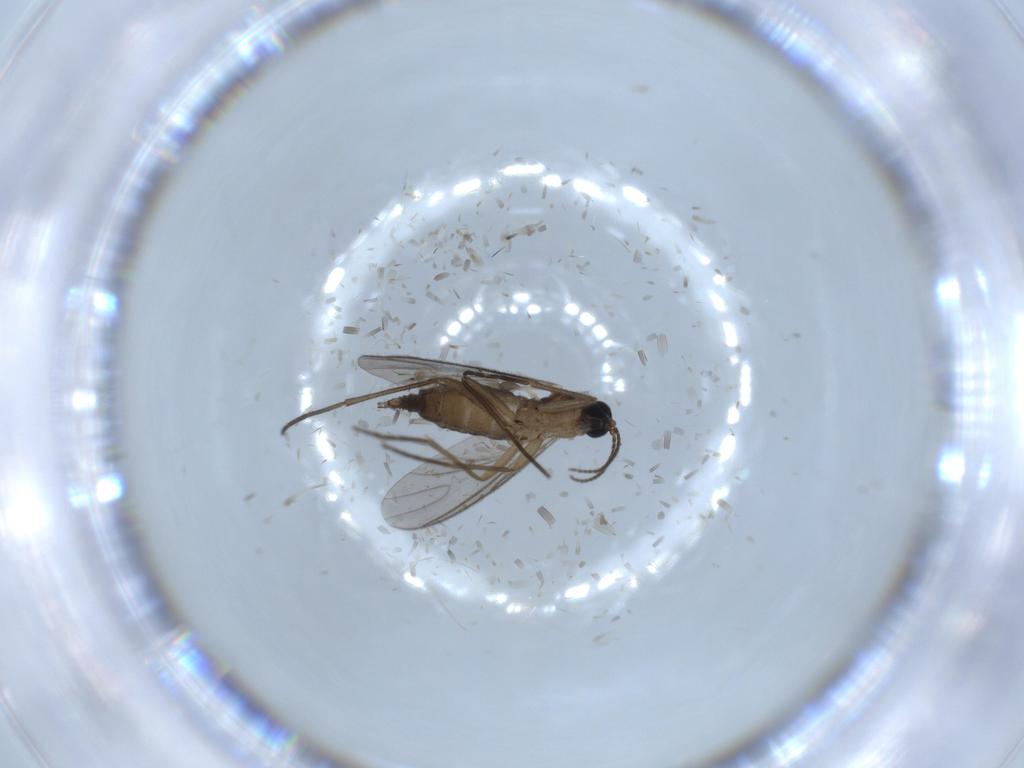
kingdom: Animalia
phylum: Arthropoda
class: Insecta
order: Diptera
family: Sciaridae
